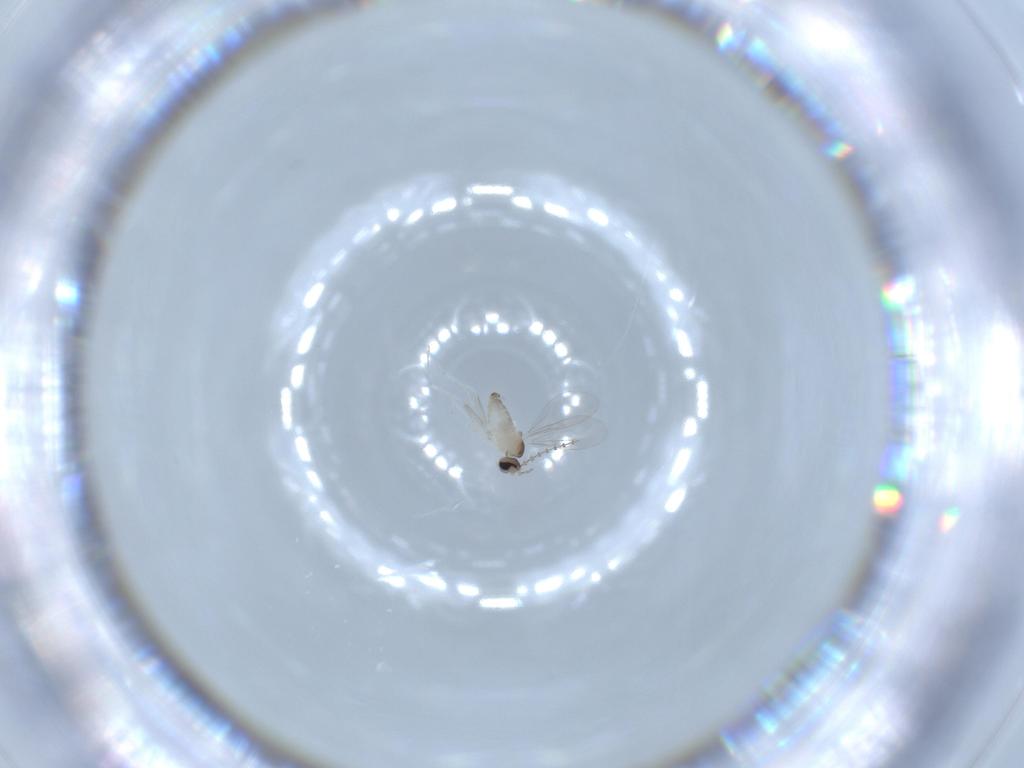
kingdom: Animalia
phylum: Arthropoda
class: Insecta
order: Diptera
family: Cecidomyiidae
